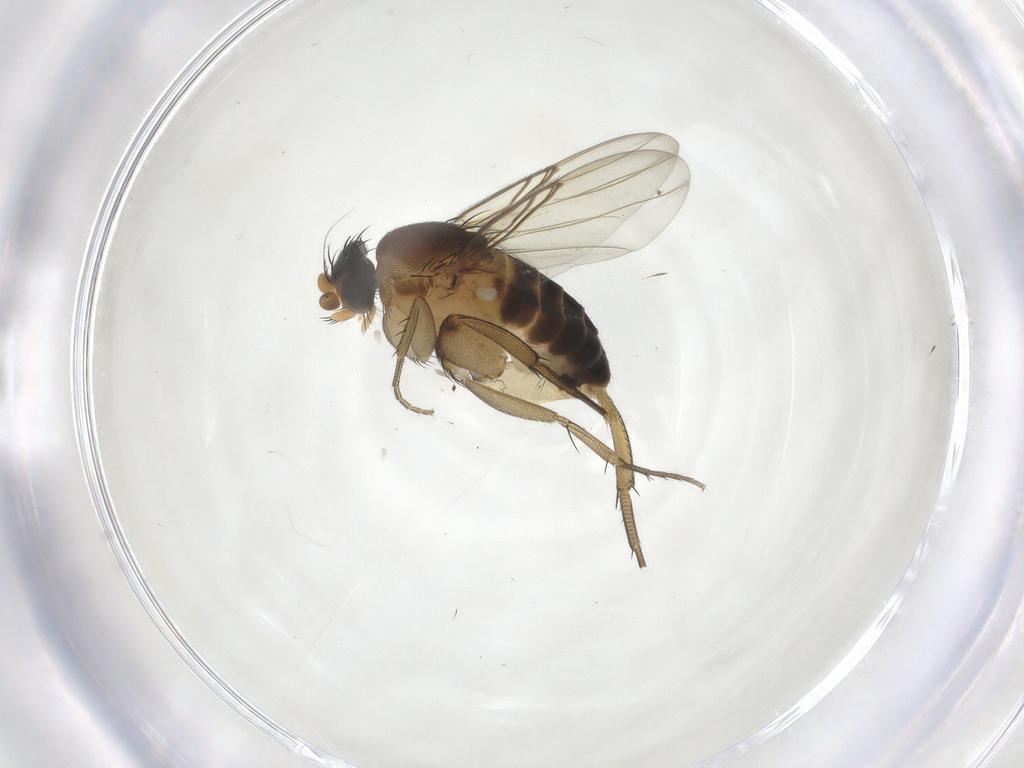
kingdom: Animalia
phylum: Arthropoda
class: Insecta
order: Diptera
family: Phoridae
